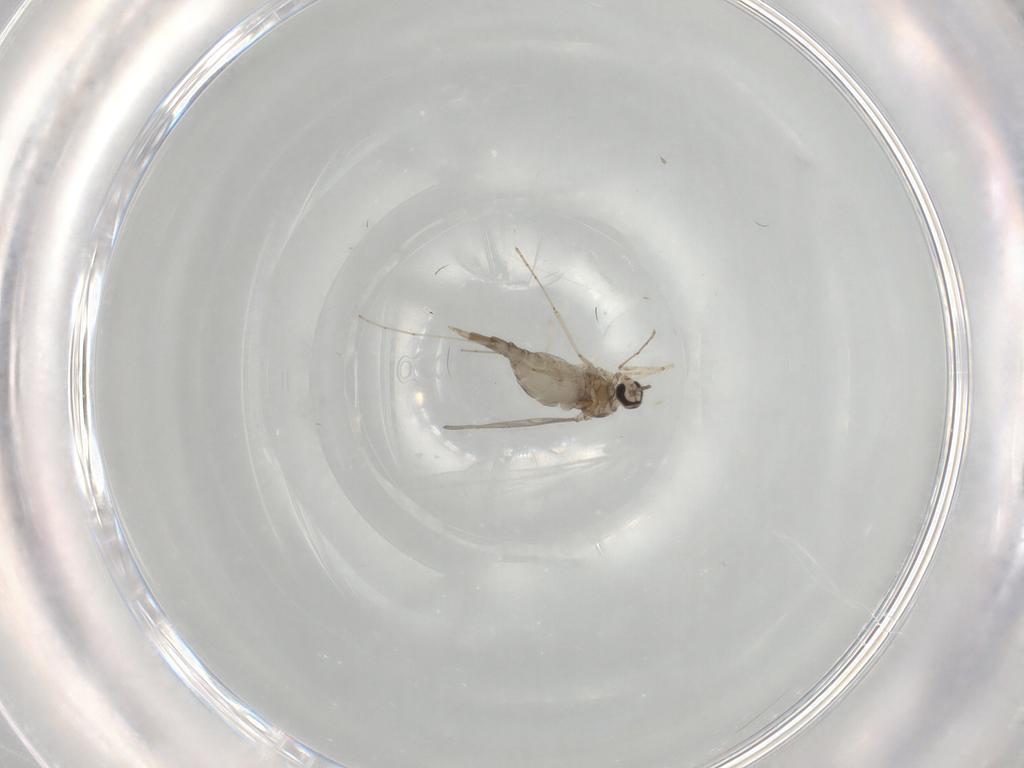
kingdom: Animalia
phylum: Arthropoda
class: Insecta
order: Diptera
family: Cecidomyiidae
